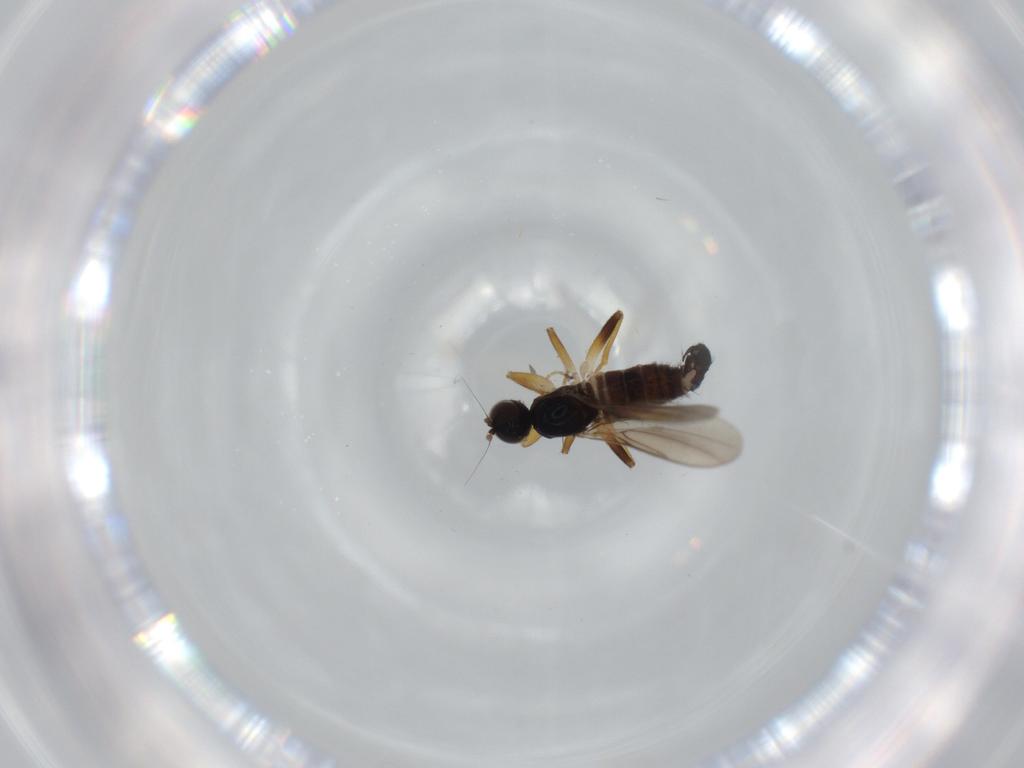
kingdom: Animalia
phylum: Arthropoda
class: Insecta
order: Diptera
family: Hybotidae
